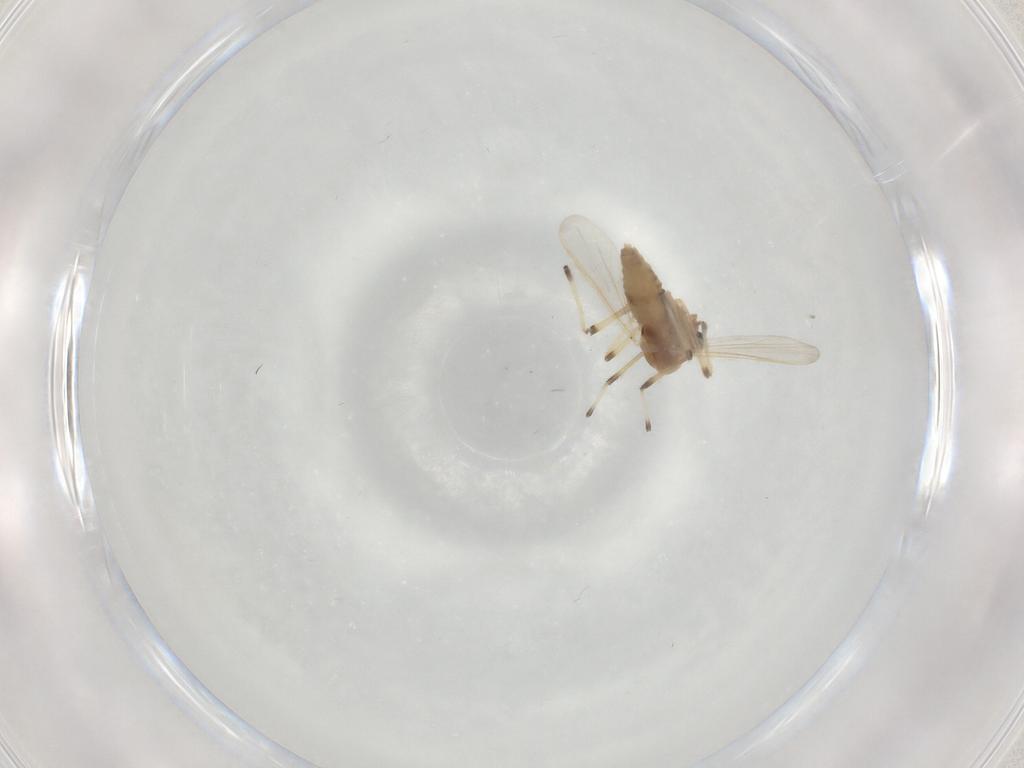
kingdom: Animalia
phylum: Arthropoda
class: Insecta
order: Diptera
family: Chironomidae
